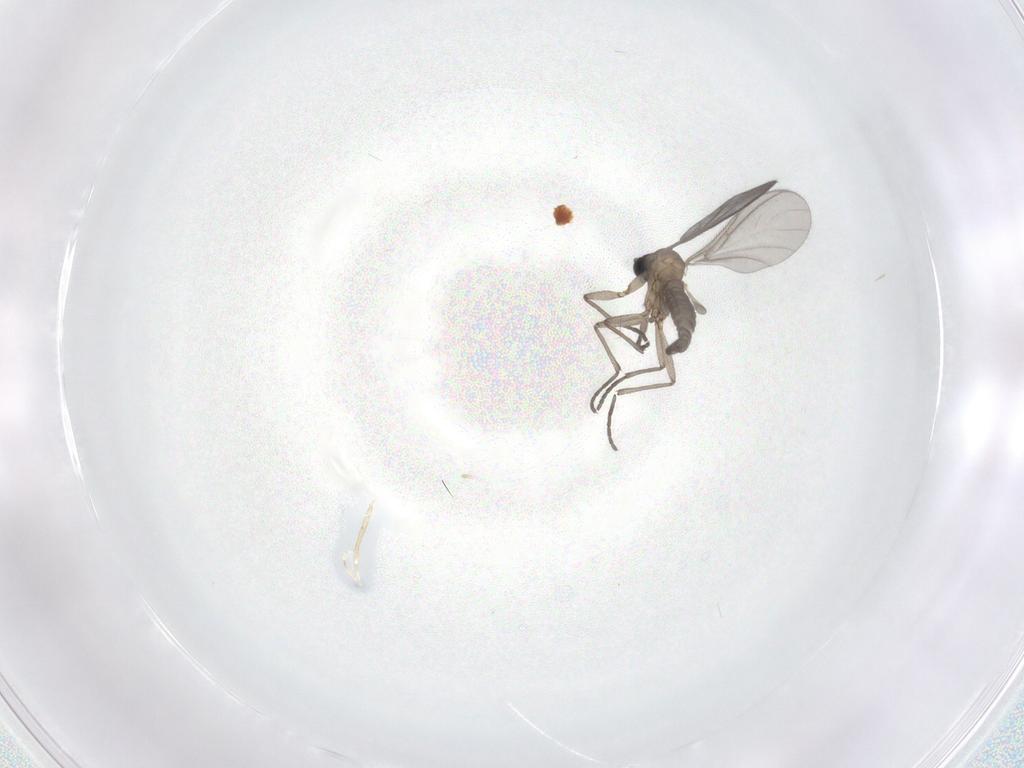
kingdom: Animalia
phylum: Arthropoda
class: Insecta
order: Diptera
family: Sciaridae
